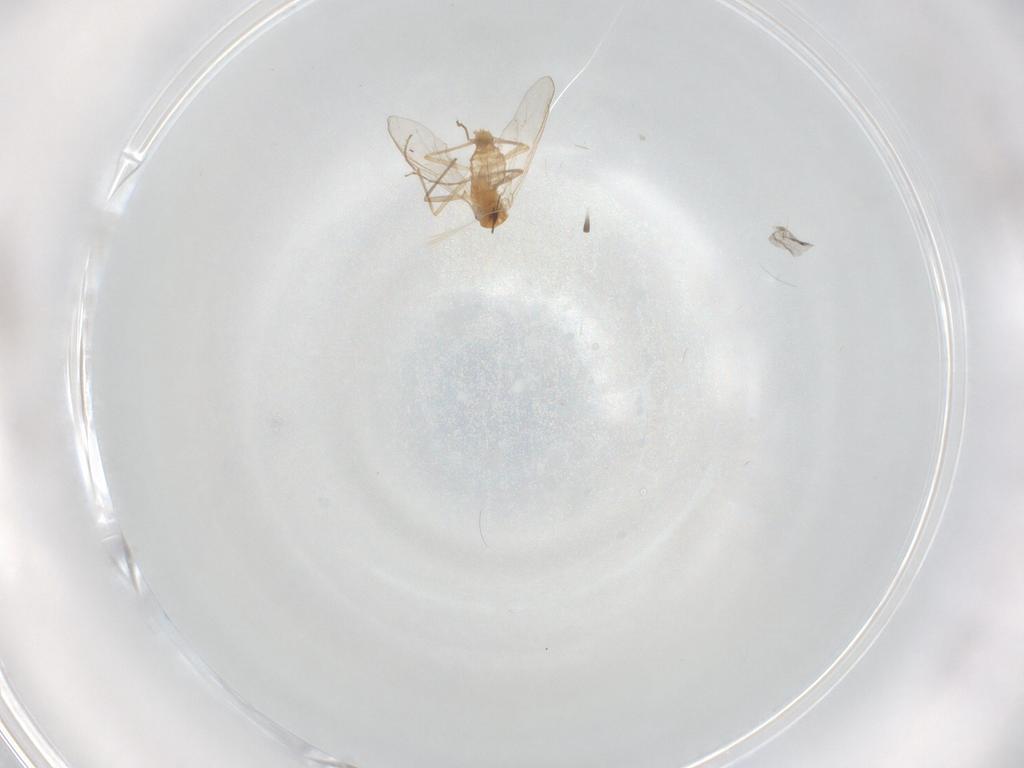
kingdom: Animalia
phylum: Arthropoda
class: Insecta
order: Diptera
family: Chironomidae
